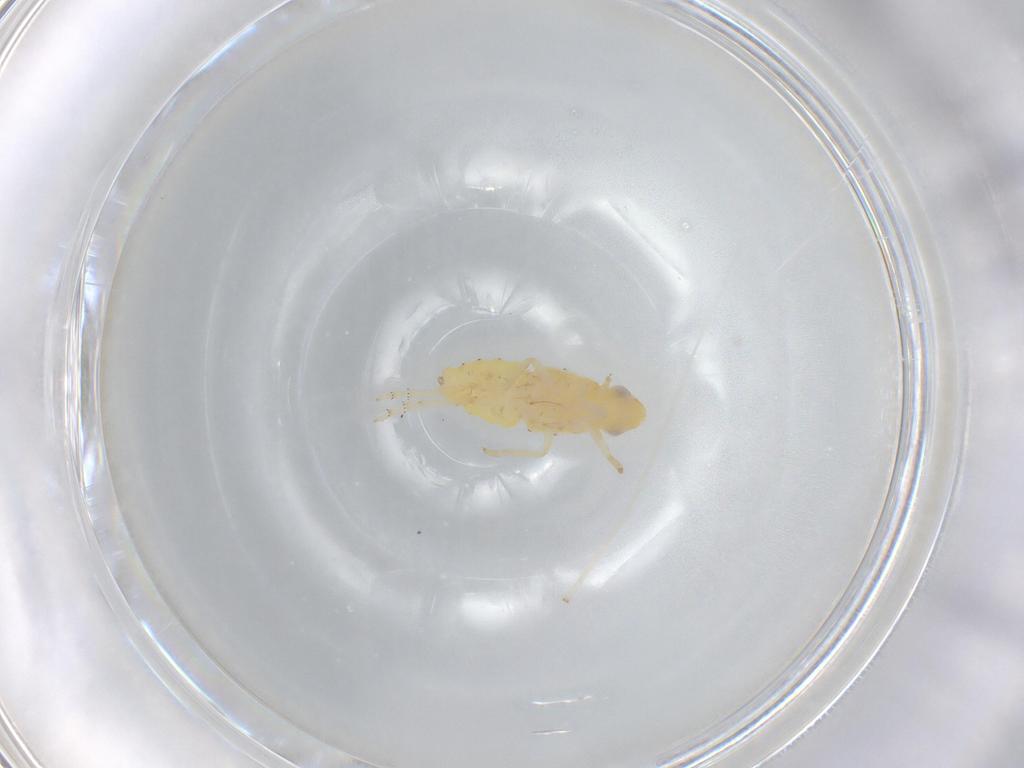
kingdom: Animalia
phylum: Arthropoda
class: Insecta
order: Hemiptera
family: Tropiduchidae
